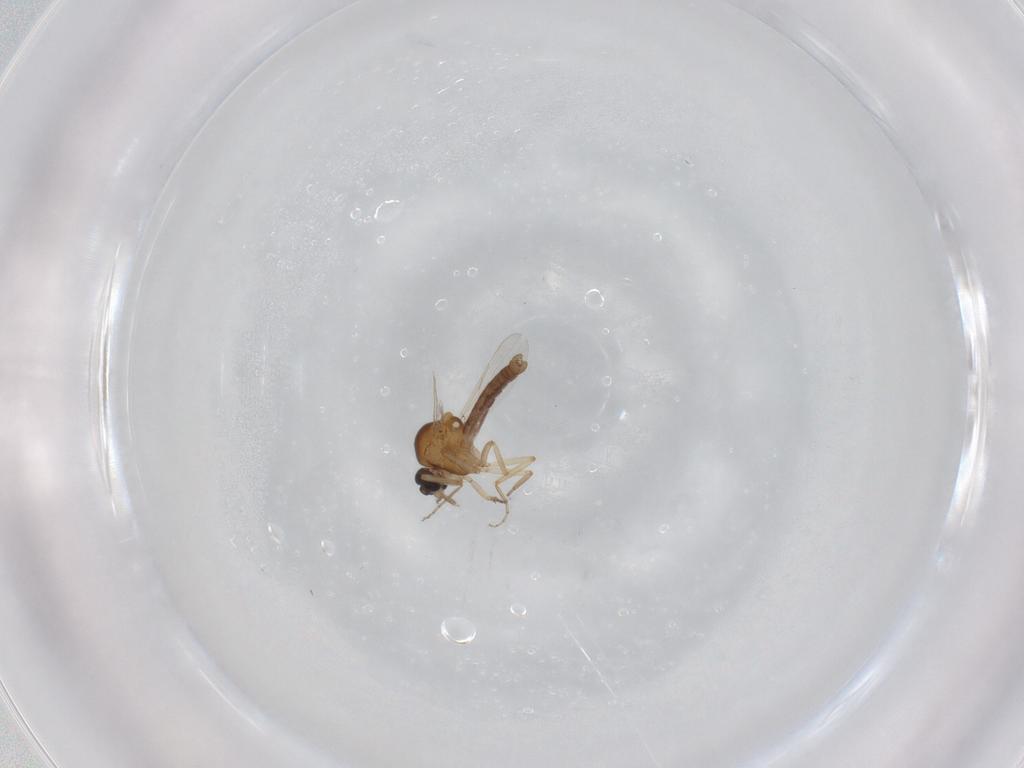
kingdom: Animalia
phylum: Arthropoda
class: Insecta
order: Diptera
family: Ceratopogonidae
